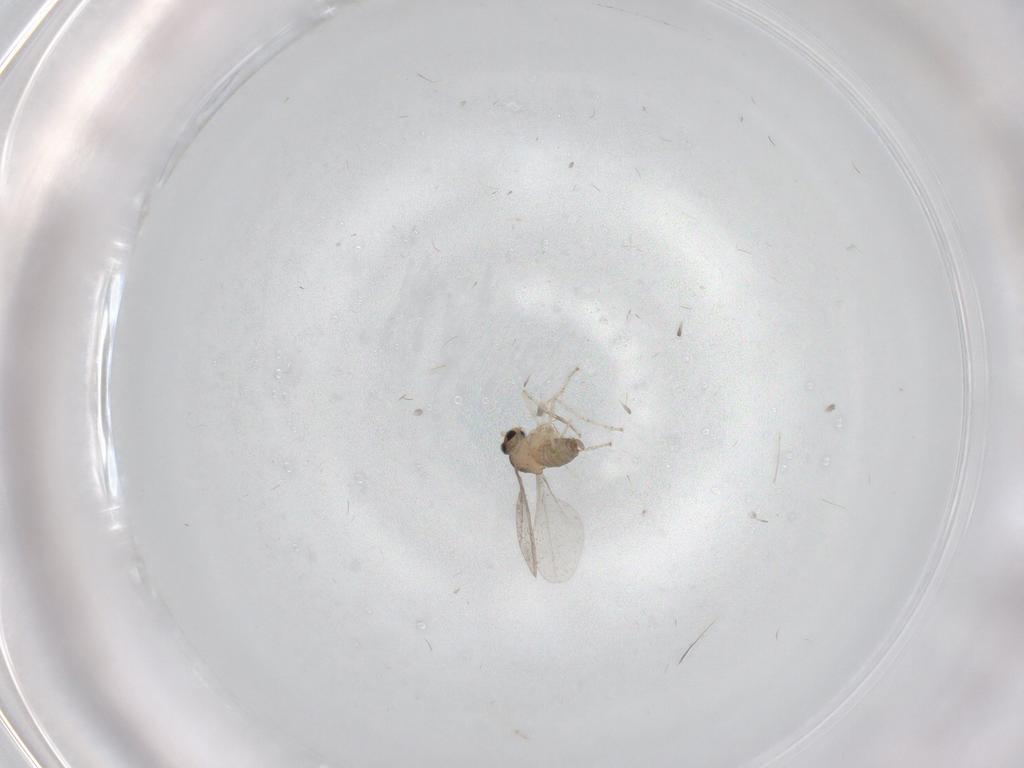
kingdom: Animalia
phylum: Arthropoda
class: Insecta
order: Diptera
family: Cecidomyiidae
